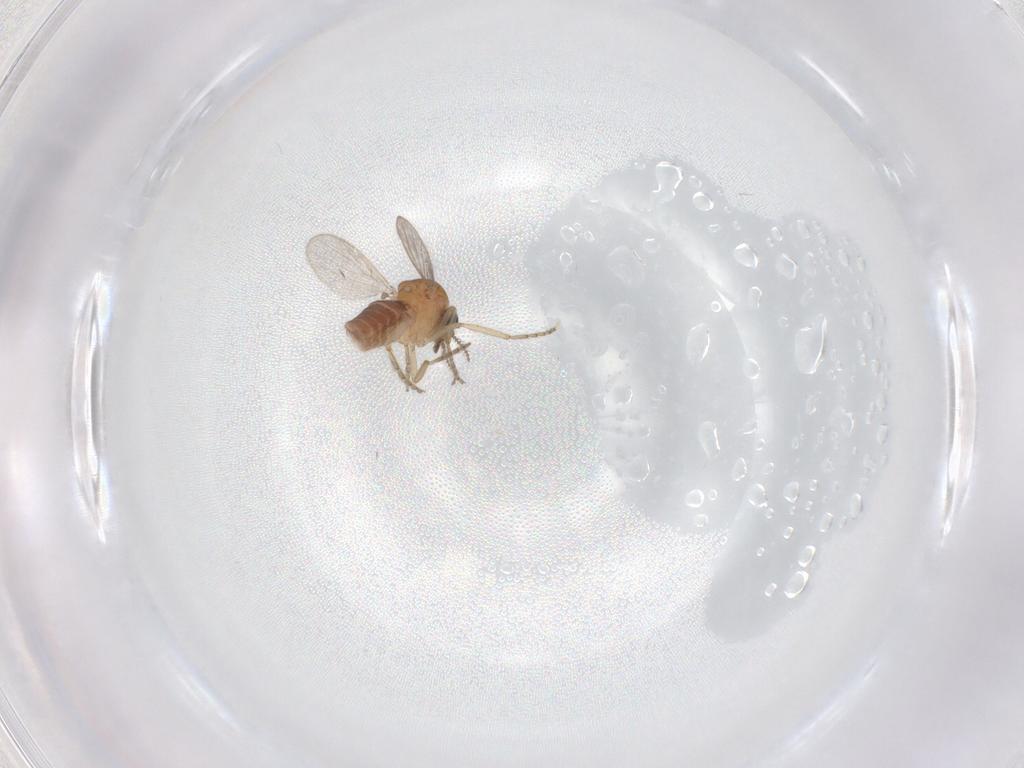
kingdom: Animalia
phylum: Arthropoda
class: Insecta
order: Diptera
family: Ceratopogonidae
